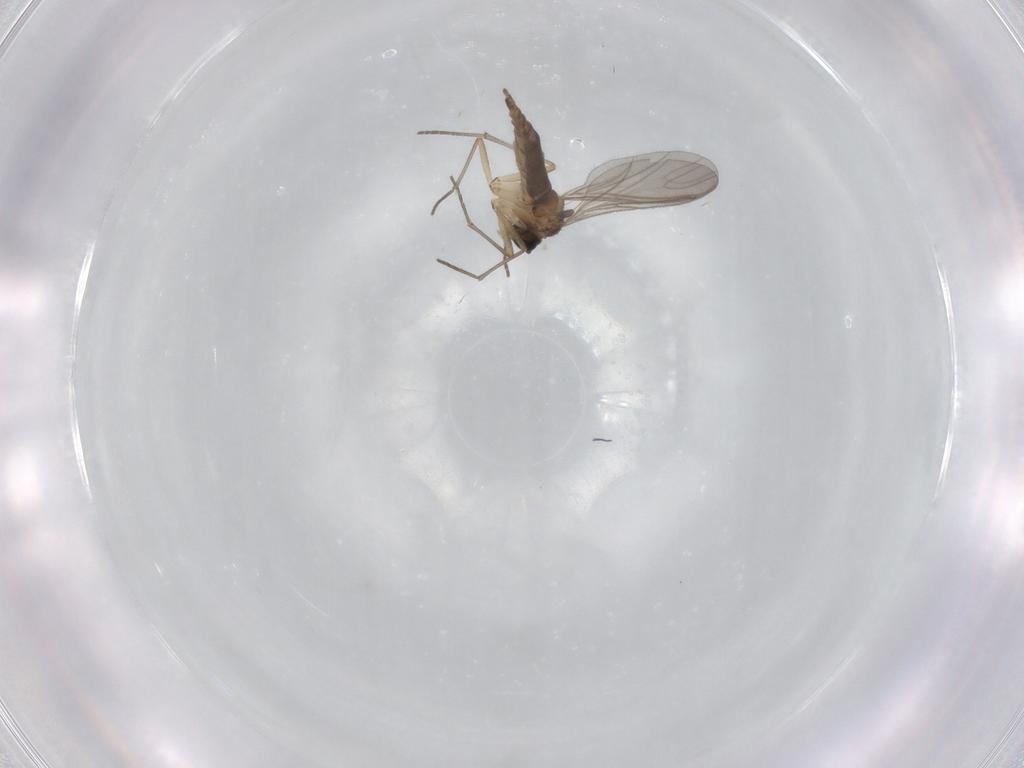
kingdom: Animalia
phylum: Arthropoda
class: Insecta
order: Diptera
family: Sciaridae
